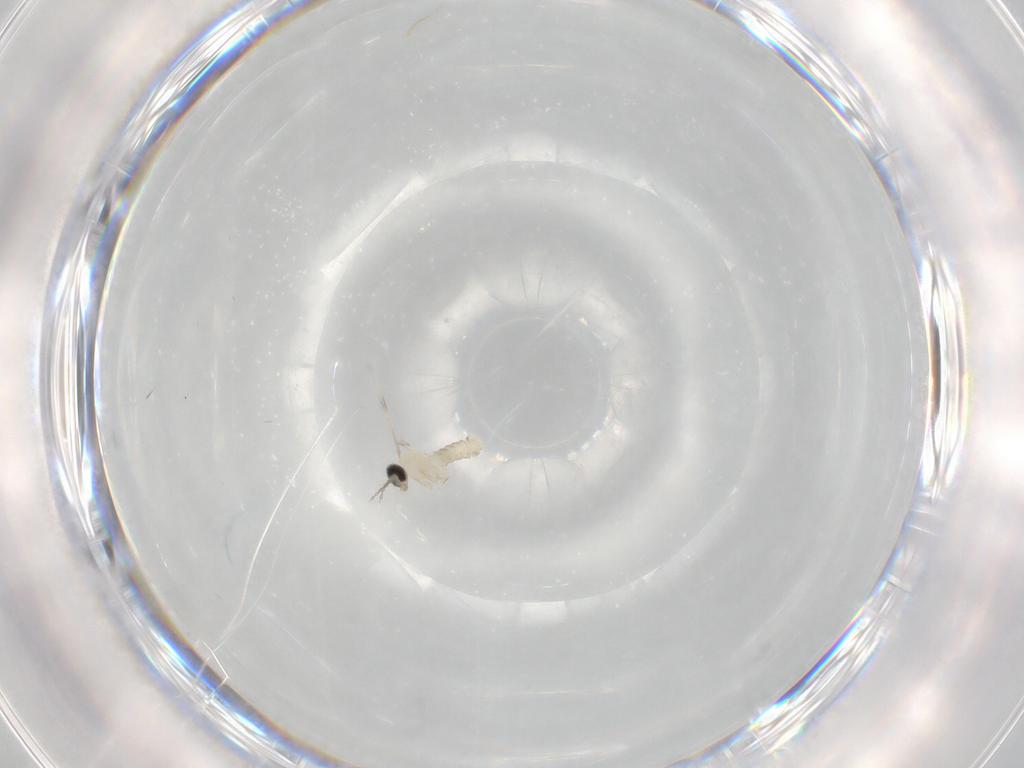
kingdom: Animalia
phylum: Arthropoda
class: Insecta
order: Diptera
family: Cecidomyiidae
